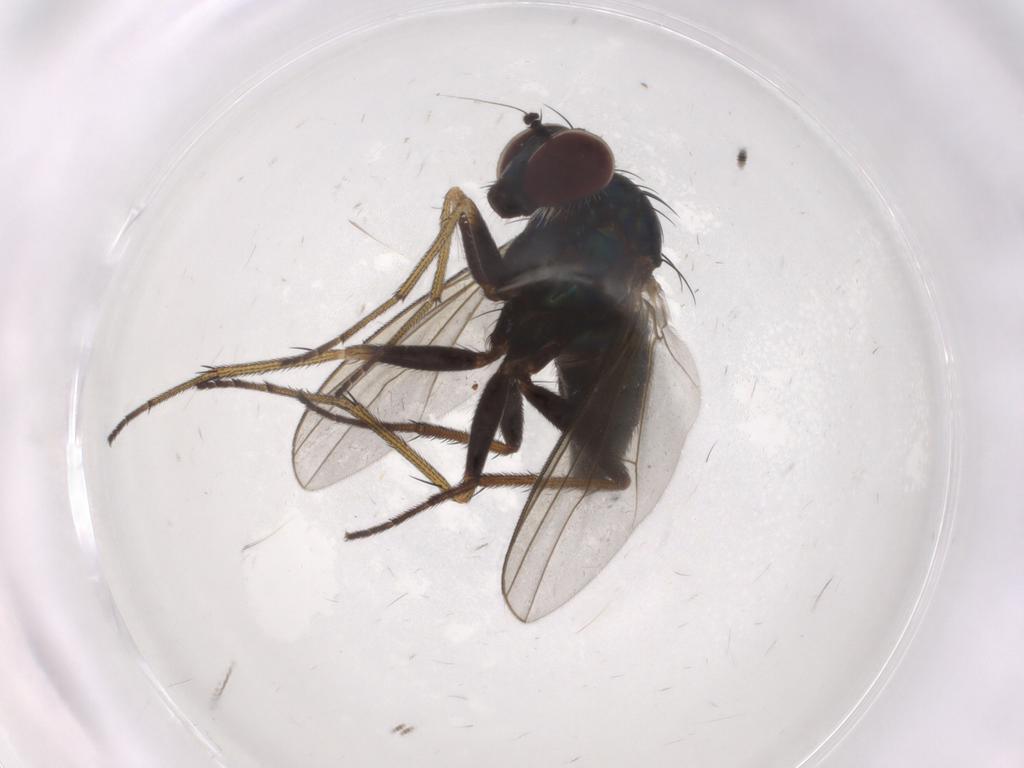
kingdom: Animalia
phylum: Arthropoda
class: Insecta
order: Diptera
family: Dolichopodidae
